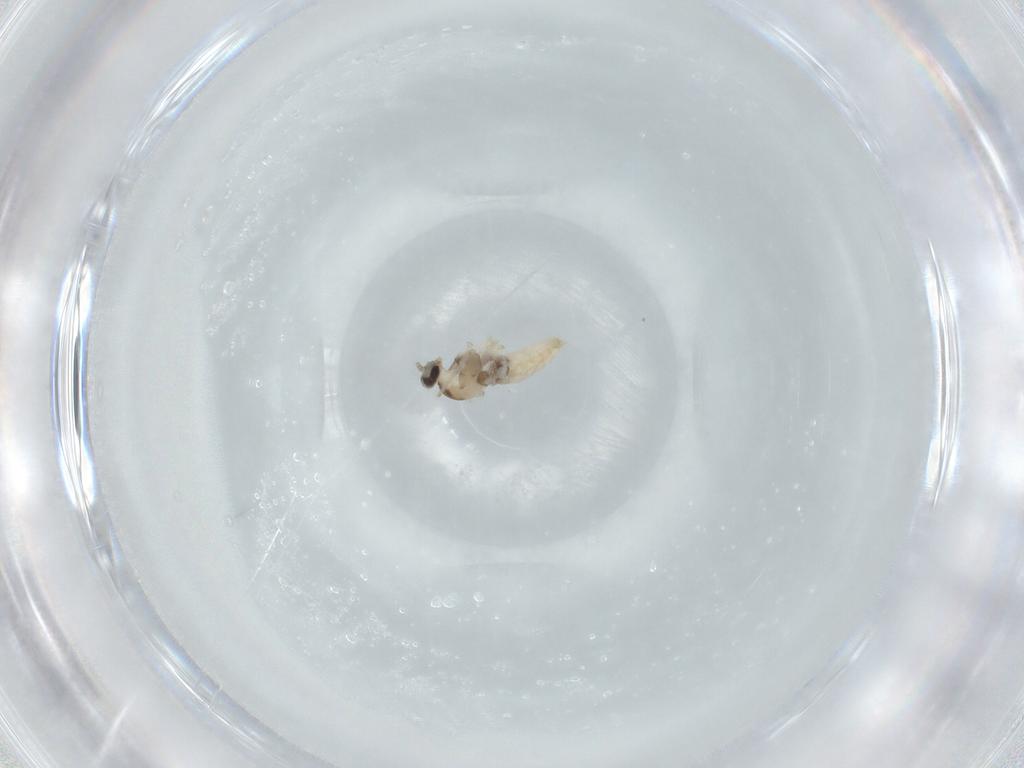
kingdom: Animalia
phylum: Arthropoda
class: Insecta
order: Diptera
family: Cecidomyiidae
